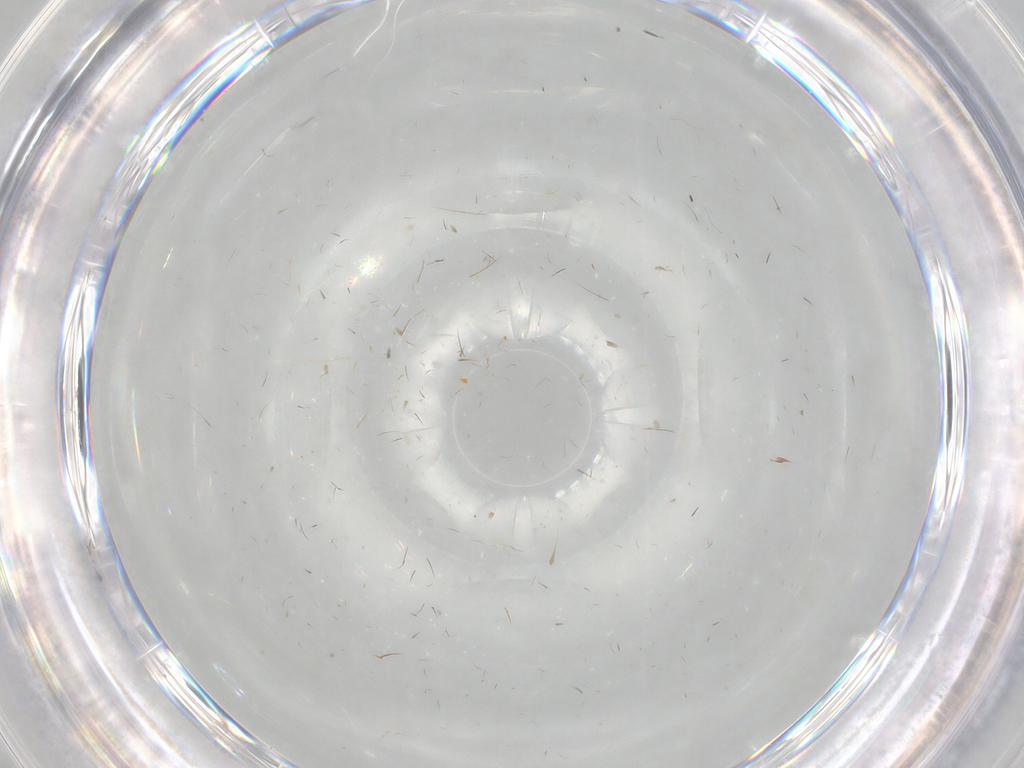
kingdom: Animalia
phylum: Arthropoda
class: Insecta
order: Coleoptera
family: Chrysomelidae
